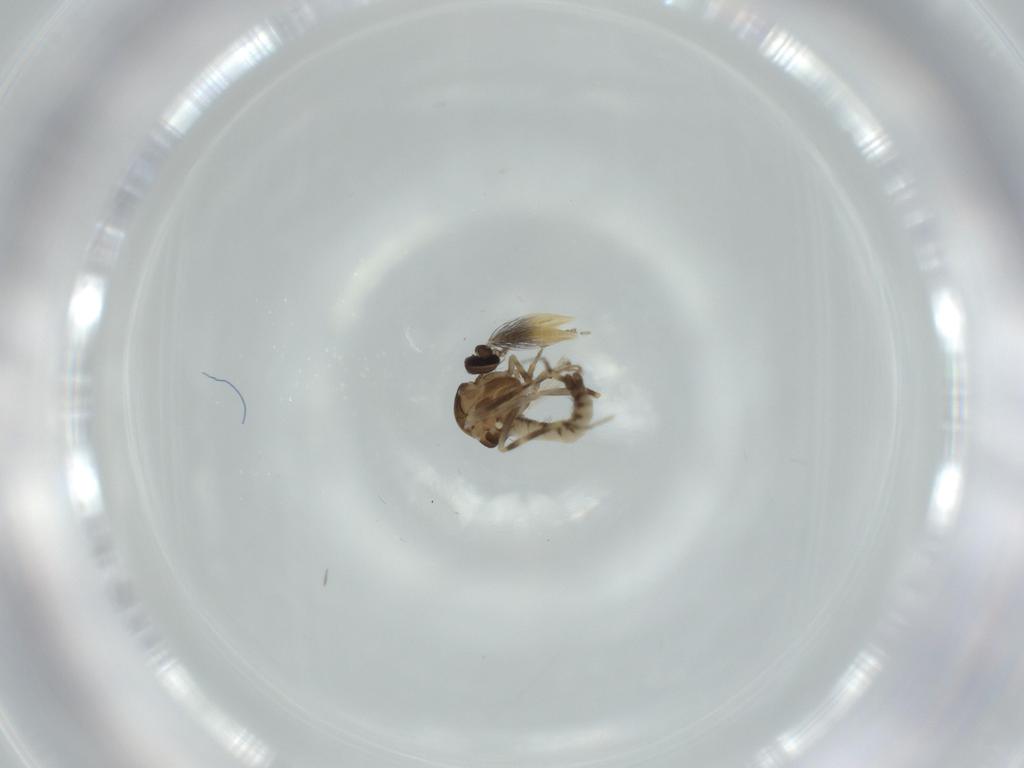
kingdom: Animalia
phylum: Arthropoda
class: Insecta
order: Diptera
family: Ceratopogonidae
